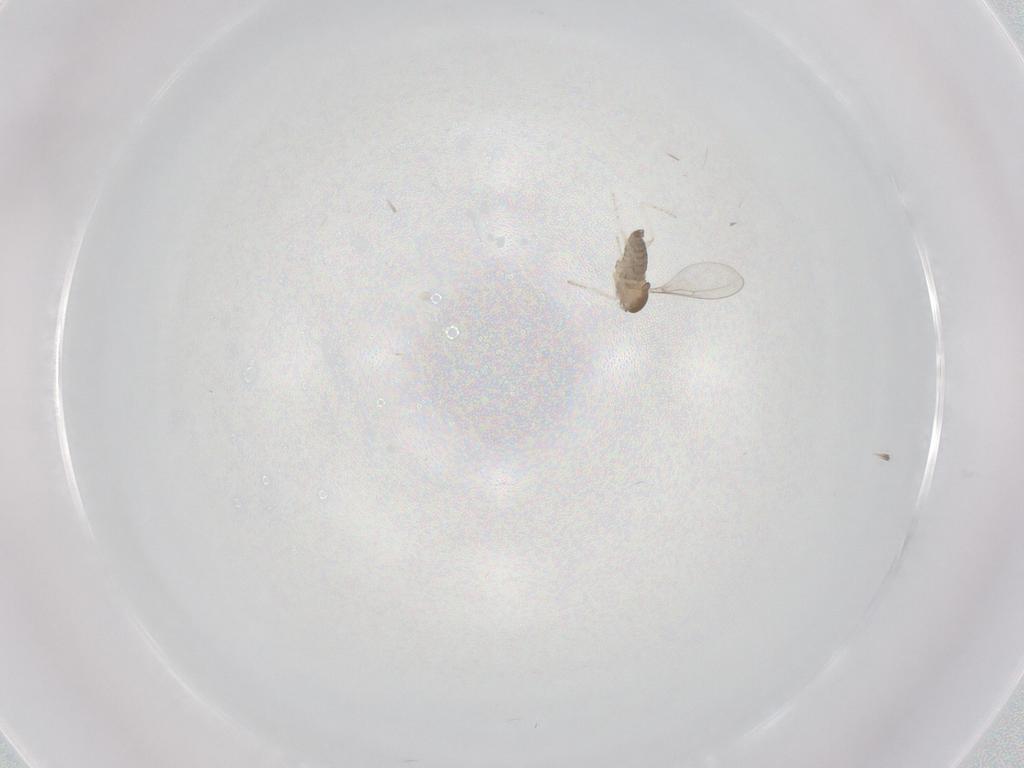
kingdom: Animalia
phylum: Arthropoda
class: Insecta
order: Diptera
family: Cecidomyiidae
